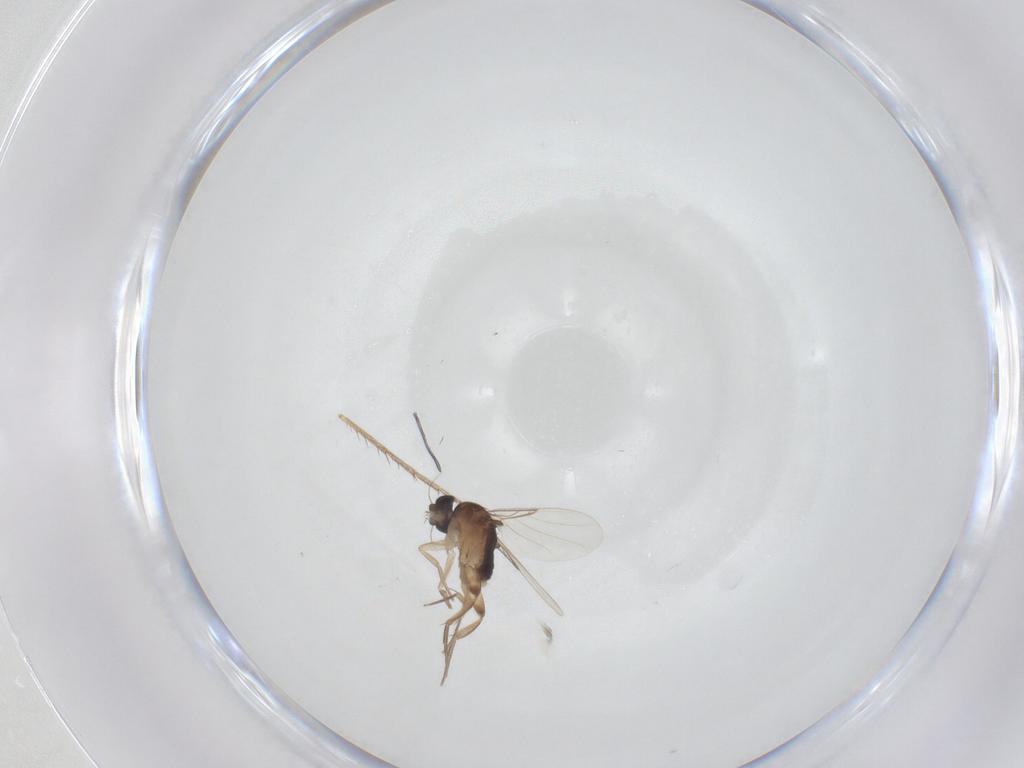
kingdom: Animalia
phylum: Arthropoda
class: Insecta
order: Diptera
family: Phoridae
